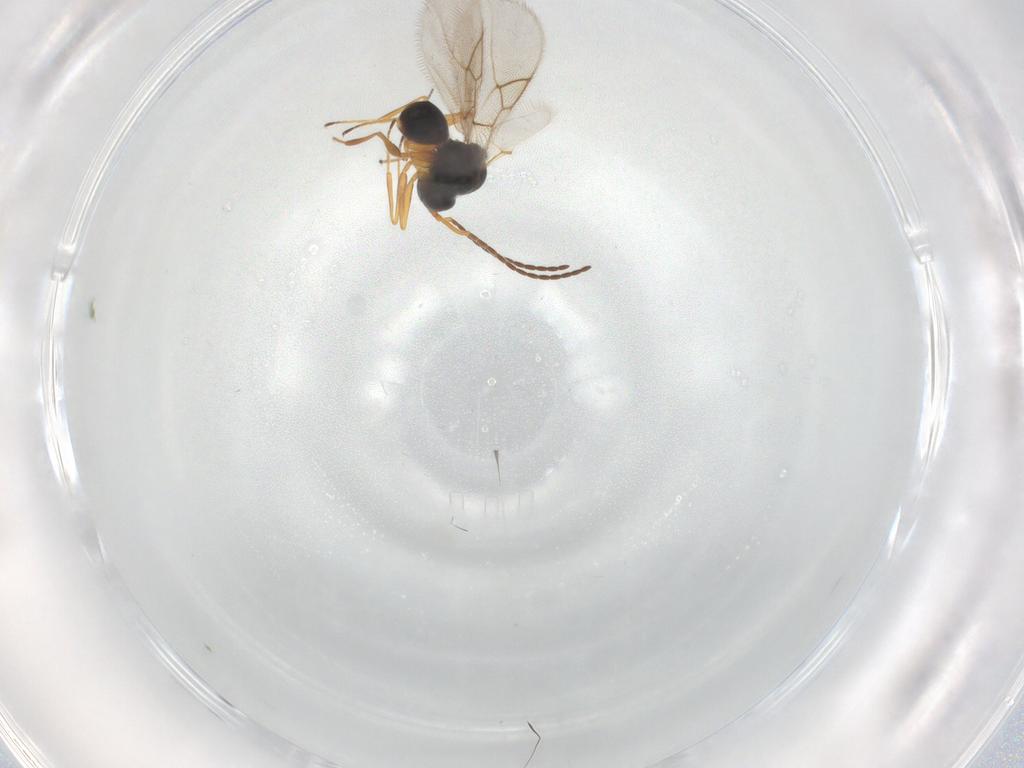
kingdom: Animalia
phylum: Arthropoda
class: Insecta
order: Hymenoptera
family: Figitidae
